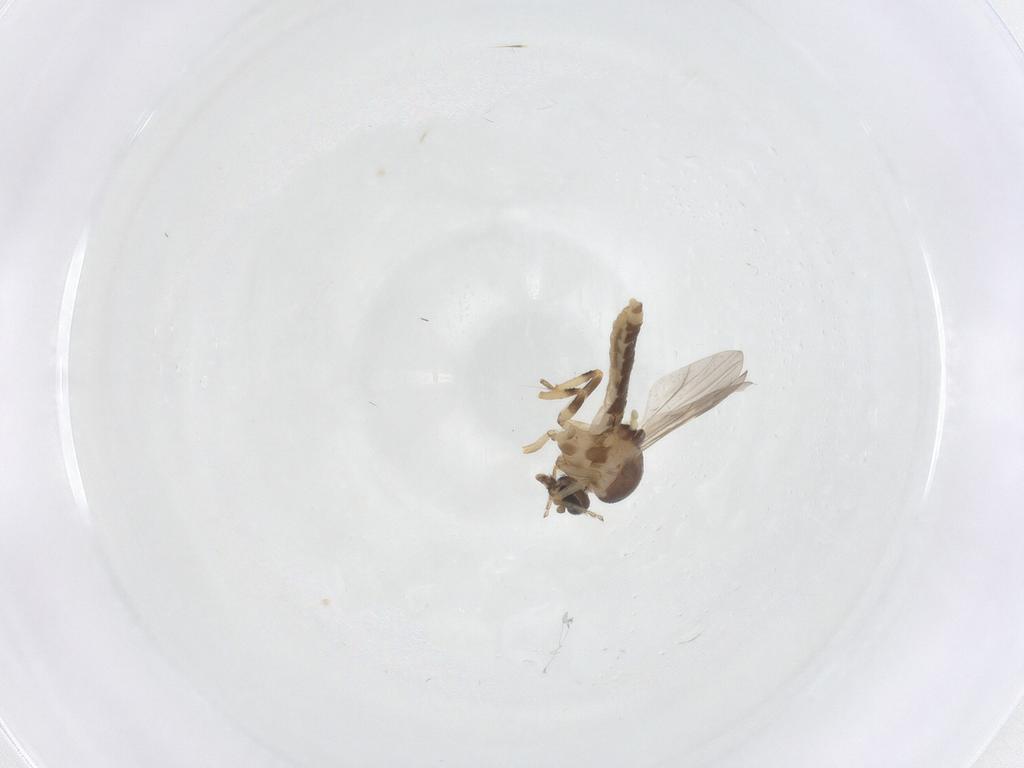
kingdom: Animalia
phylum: Arthropoda
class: Insecta
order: Diptera
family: Ceratopogonidae
